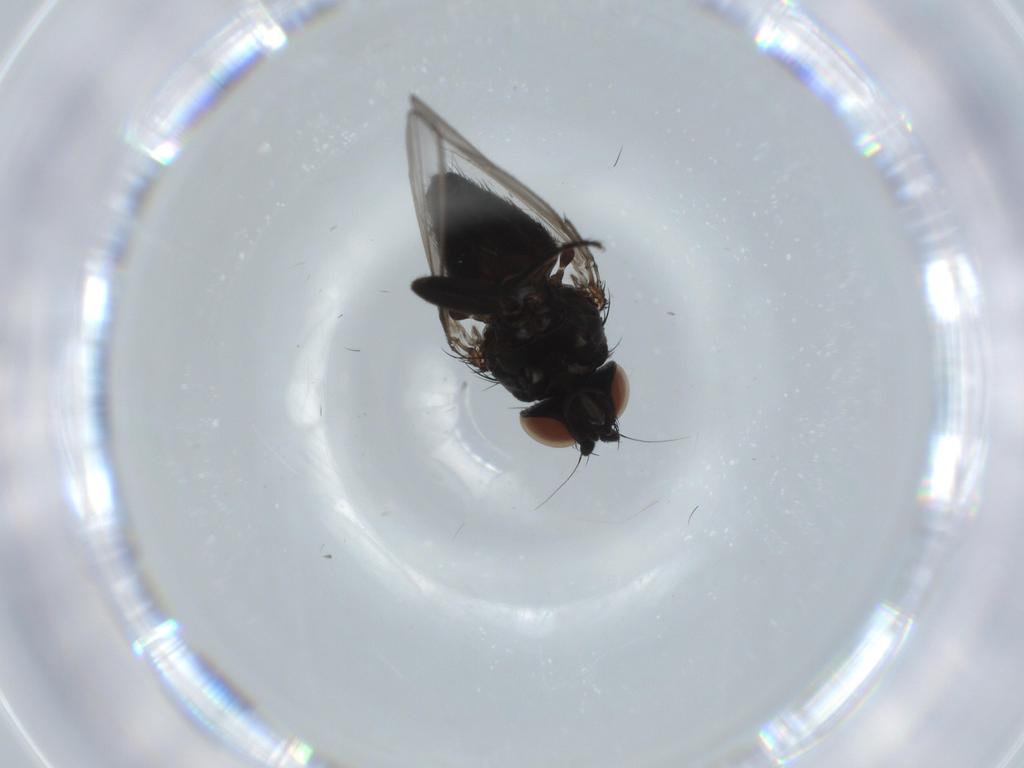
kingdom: Animalia
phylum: Arthropoda
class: Insecta
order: Diptera
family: Milichiidae
